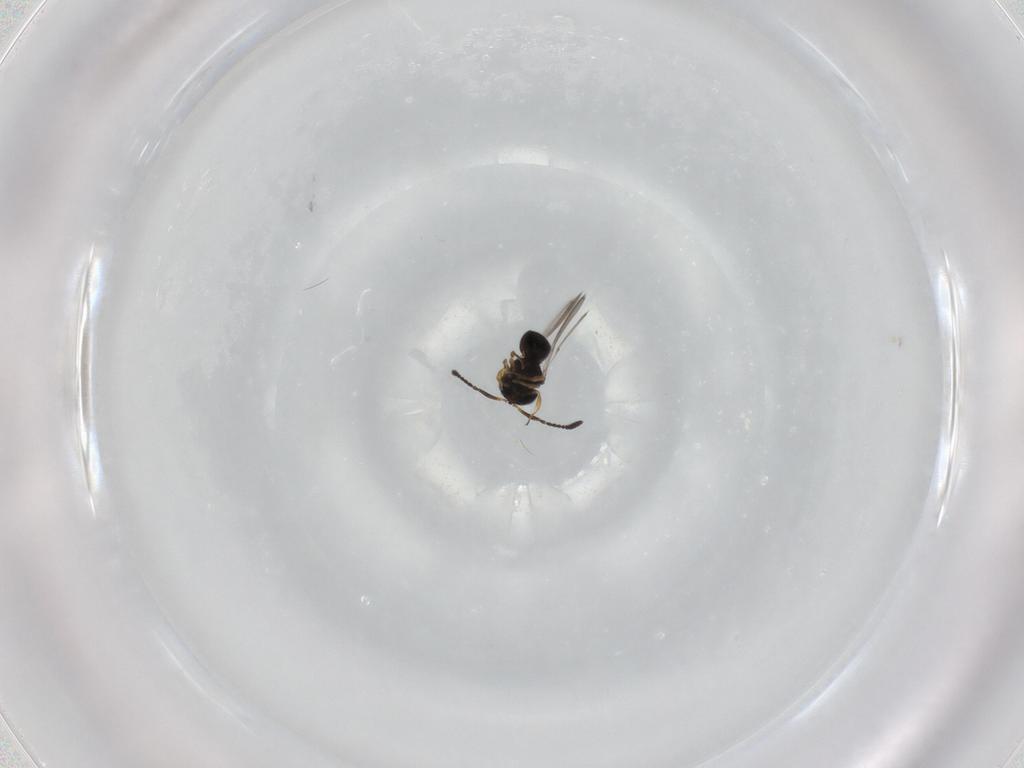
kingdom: Animalia
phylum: Arthropoda
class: Insecta
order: Hymenoptera
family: Scelionidae
